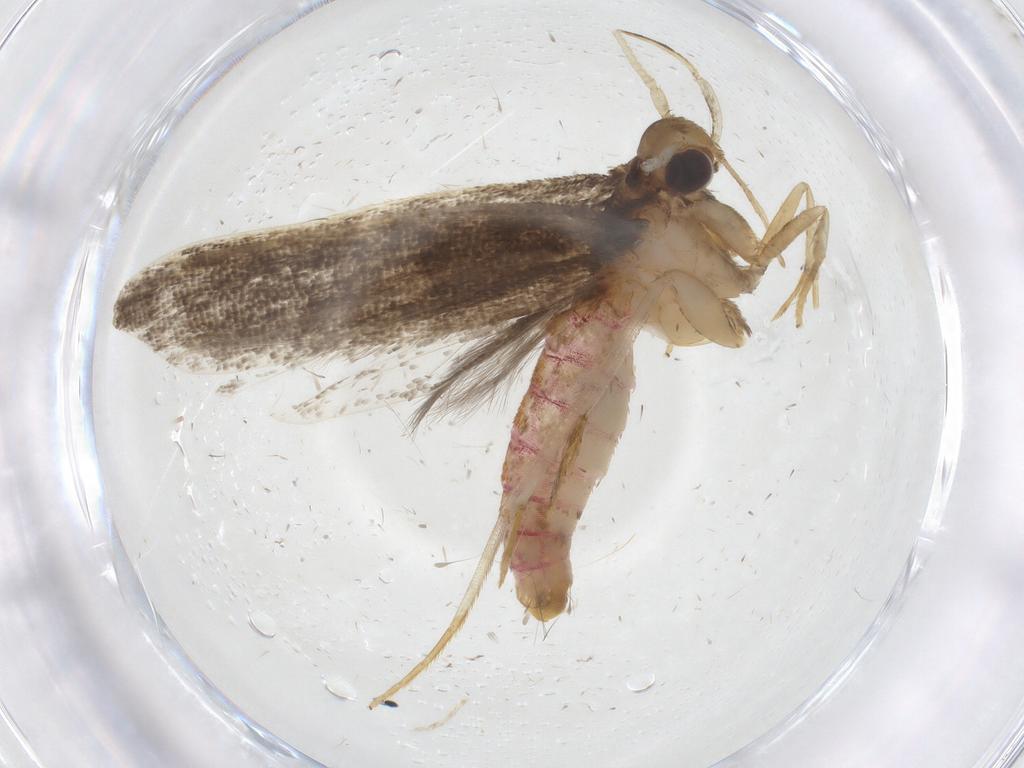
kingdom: Animalia
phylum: Arthropoda
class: Insecta
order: Lepidoptera
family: Lecithoceridae
